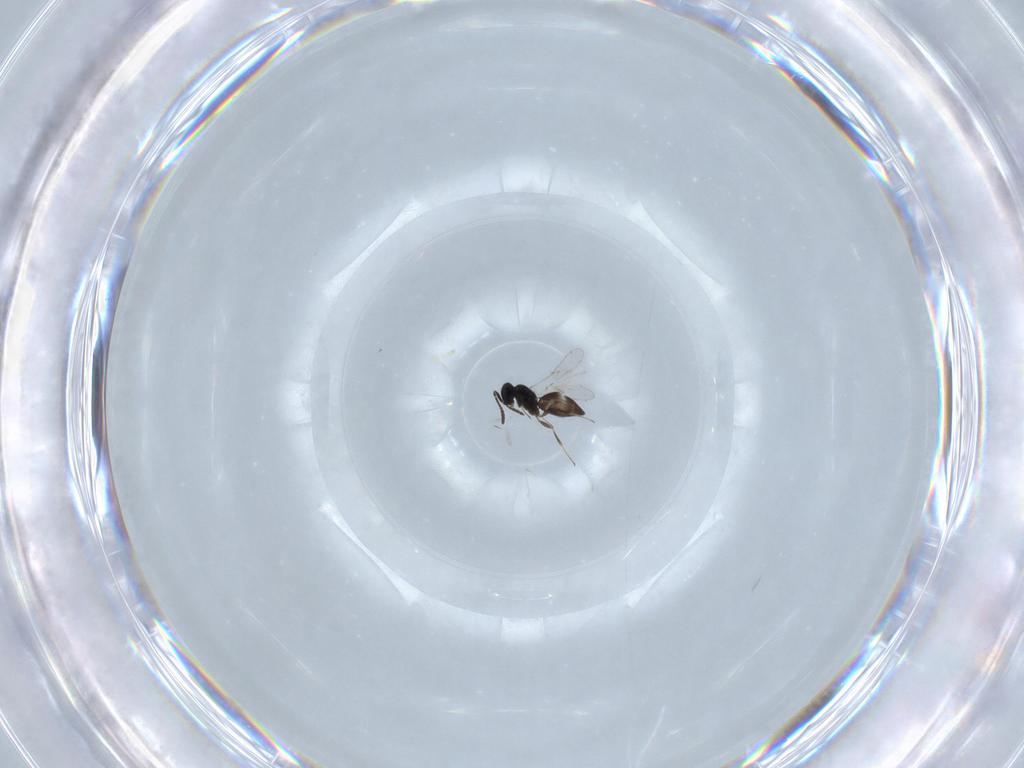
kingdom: Animalia
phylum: Arthropoda
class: Insecta
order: Hymenoptera
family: Scelionidae
